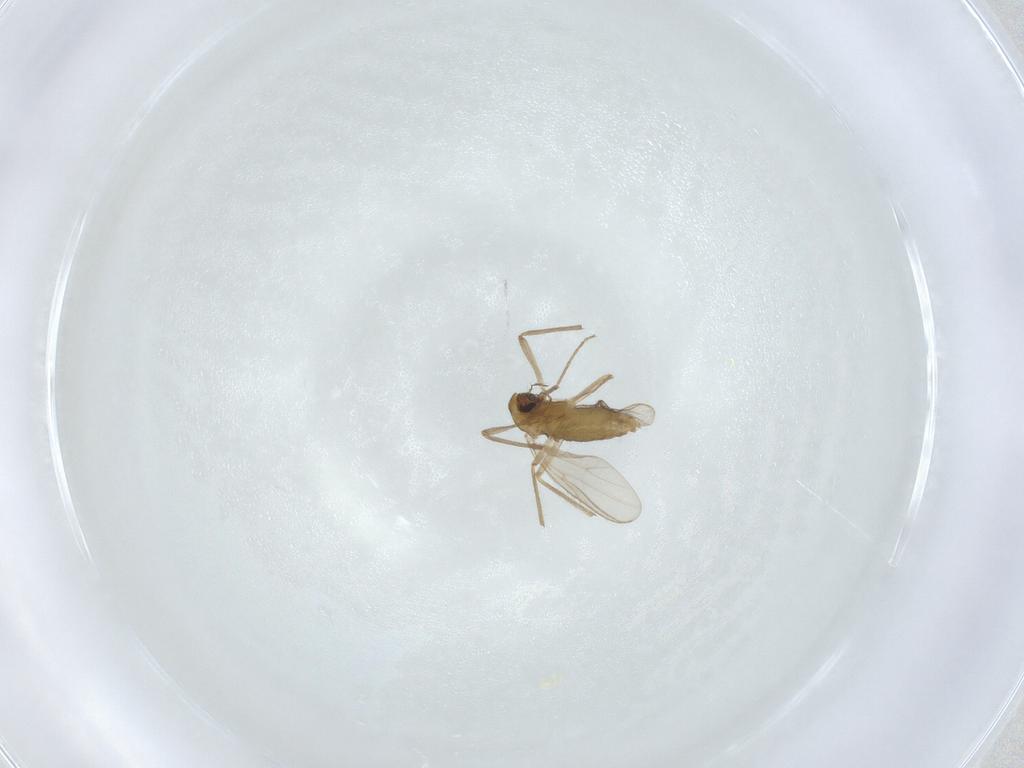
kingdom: Animalia
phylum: Arthropoda
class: Insecta
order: Diptera
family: Chironomidae
